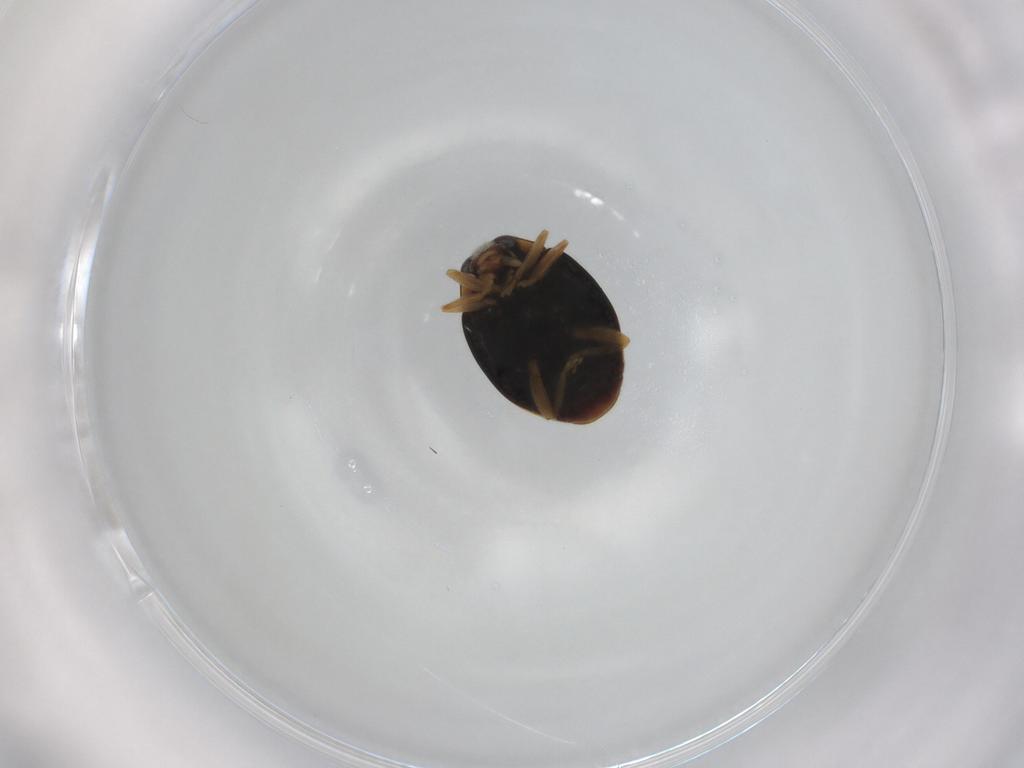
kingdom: Animalia
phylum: Arthropoda
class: Insecta
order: Coleoptera
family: Coccinellidae
